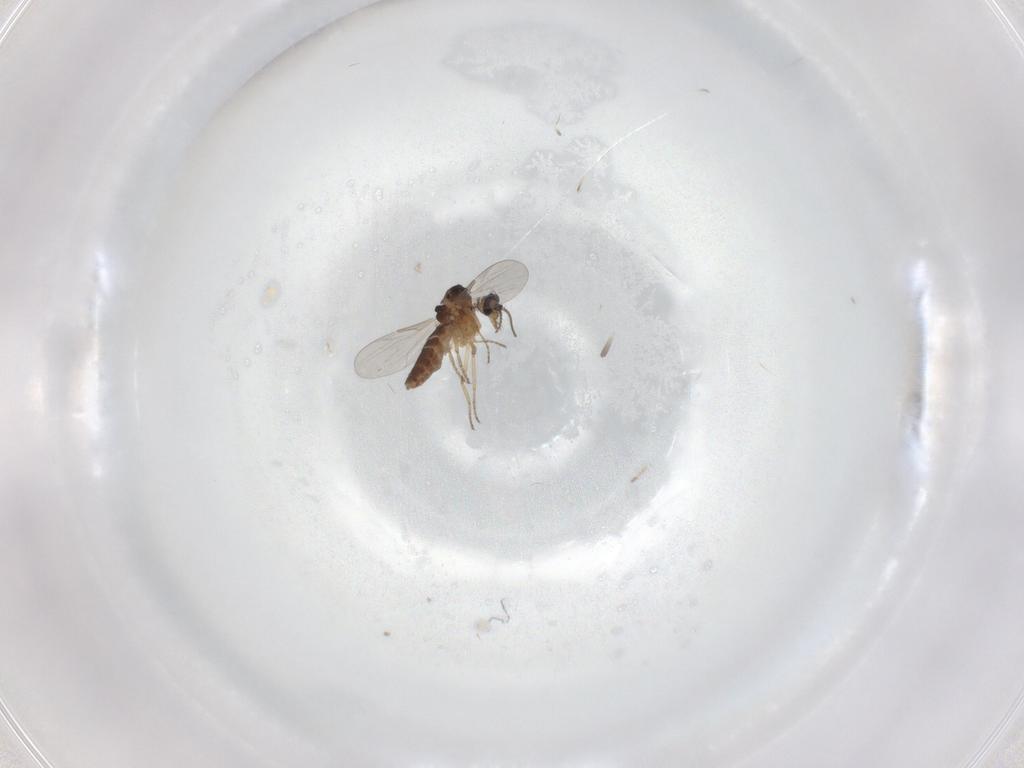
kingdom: Animalia
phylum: Arthropoda
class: Insecta
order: Diptera
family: Ceratopogonidae
